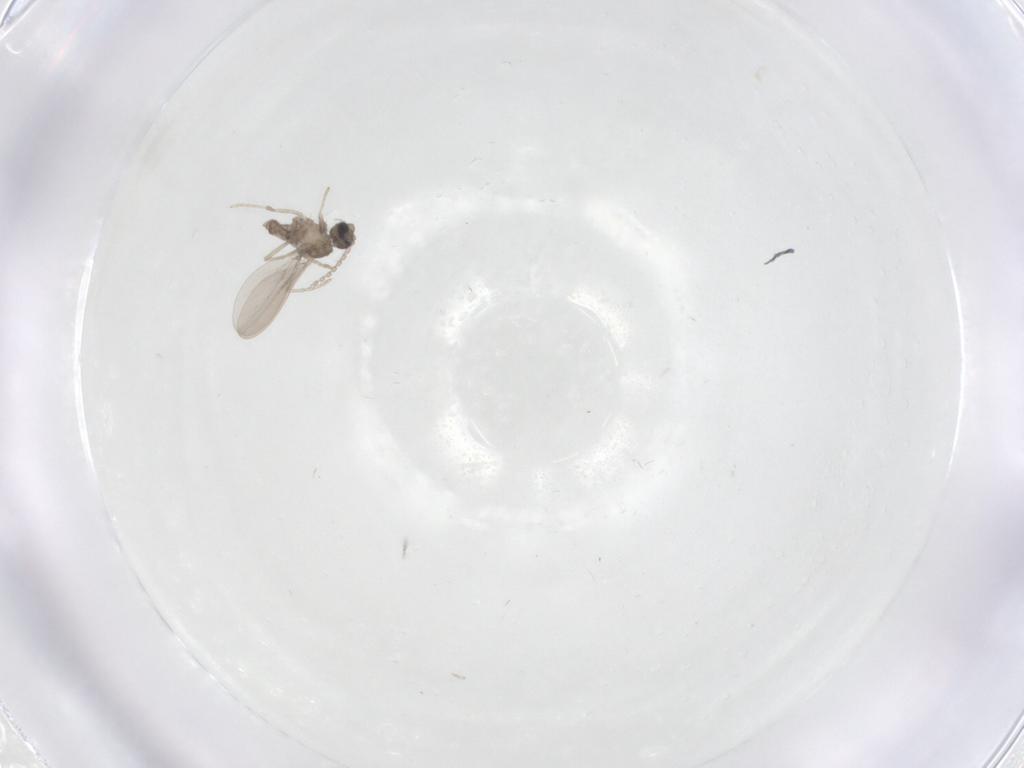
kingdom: Animalia
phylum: Arthropoda
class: Insecta
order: Diptera
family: Cecidomyiidae
